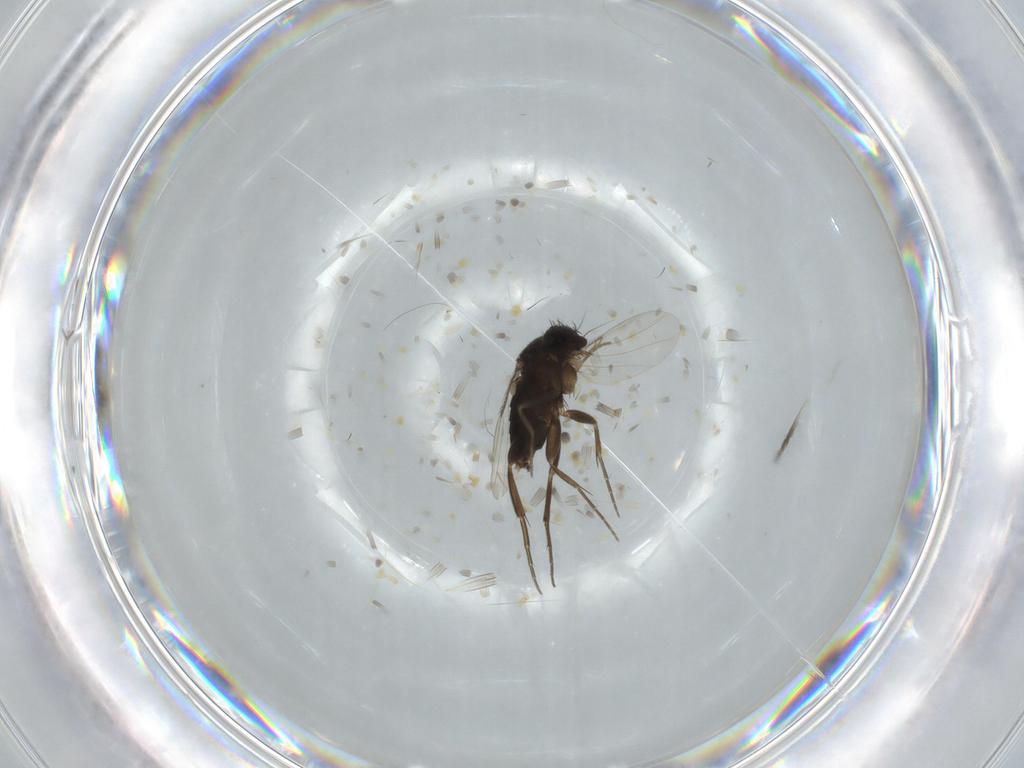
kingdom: Animalia
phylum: Arthropoda
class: Insecta
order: Diptera
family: Phoridae
